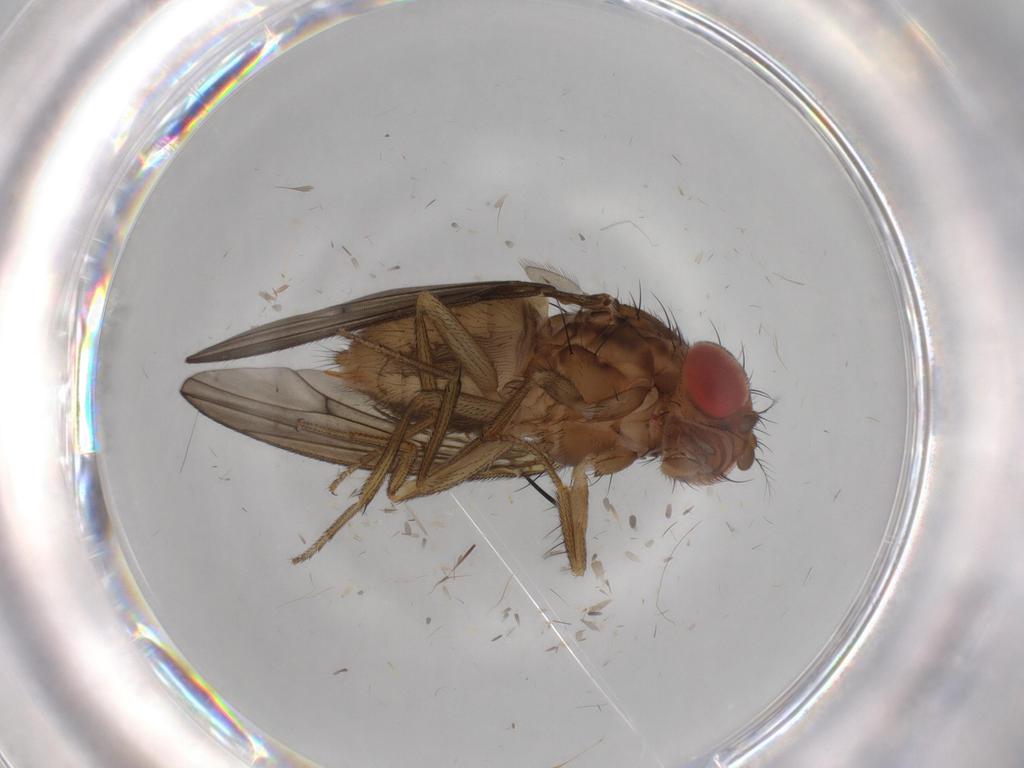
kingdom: Animalia
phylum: Arthropoda
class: Insecta
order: Diptera
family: Drosophilidae
